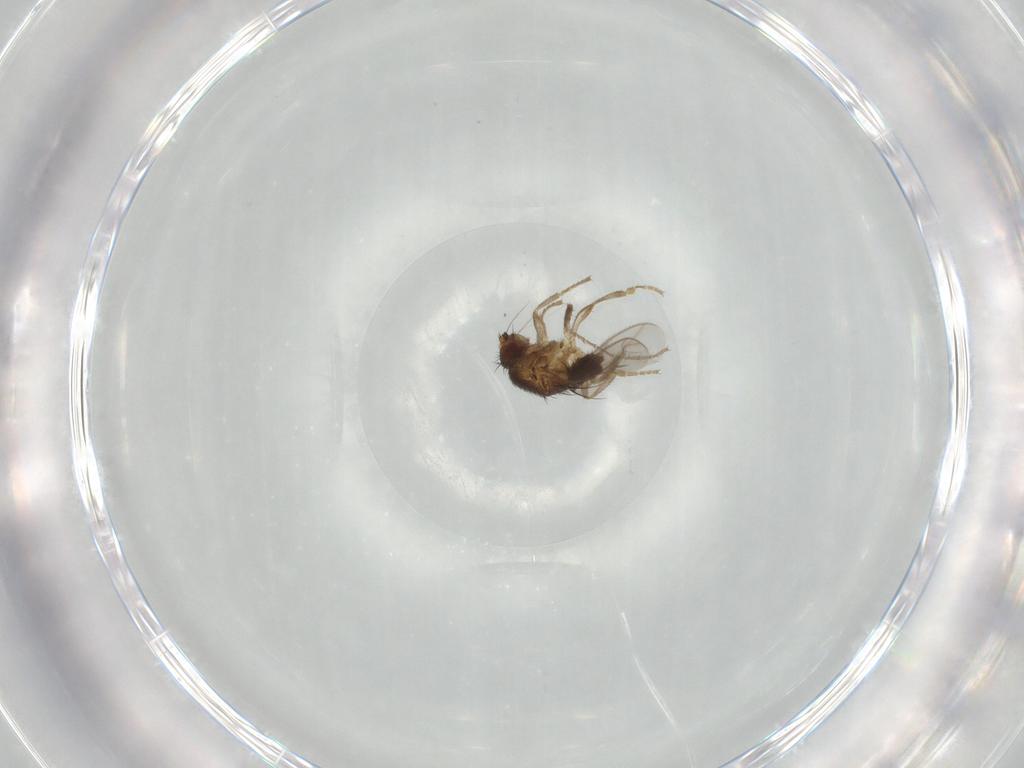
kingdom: Animalia
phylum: Arthropoda
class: Insecta
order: Diptera
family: Sphaeroceridae
